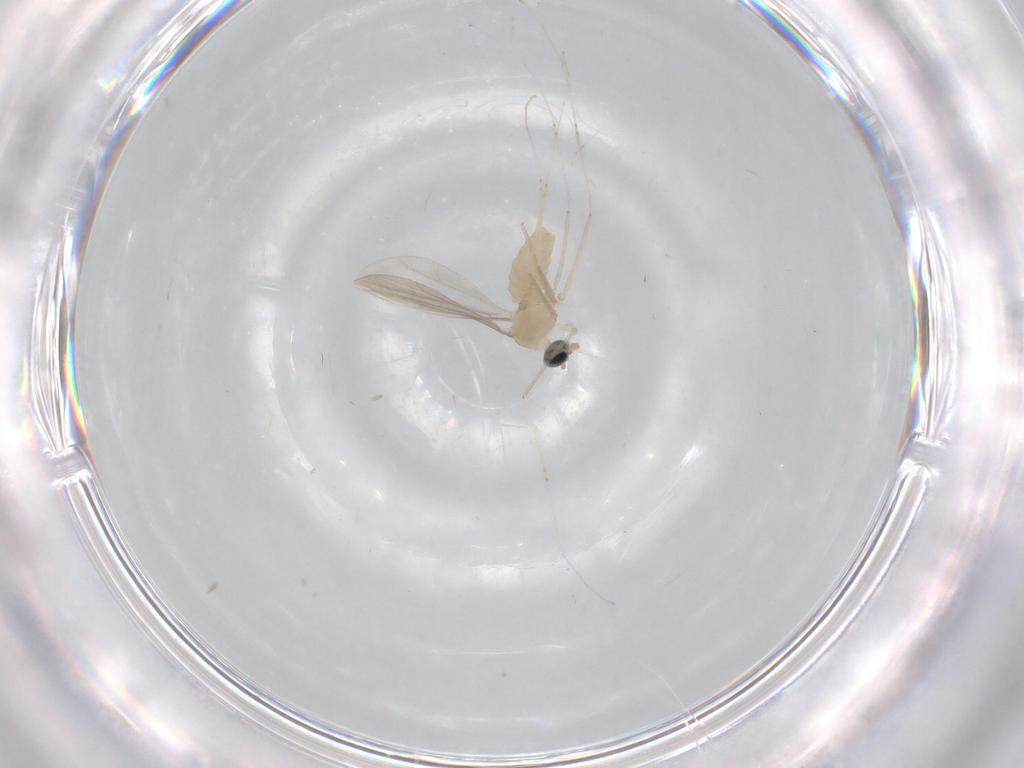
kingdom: Animalia
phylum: Arthropoda
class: Insecta
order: Diptera
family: Cecidomyiidae
